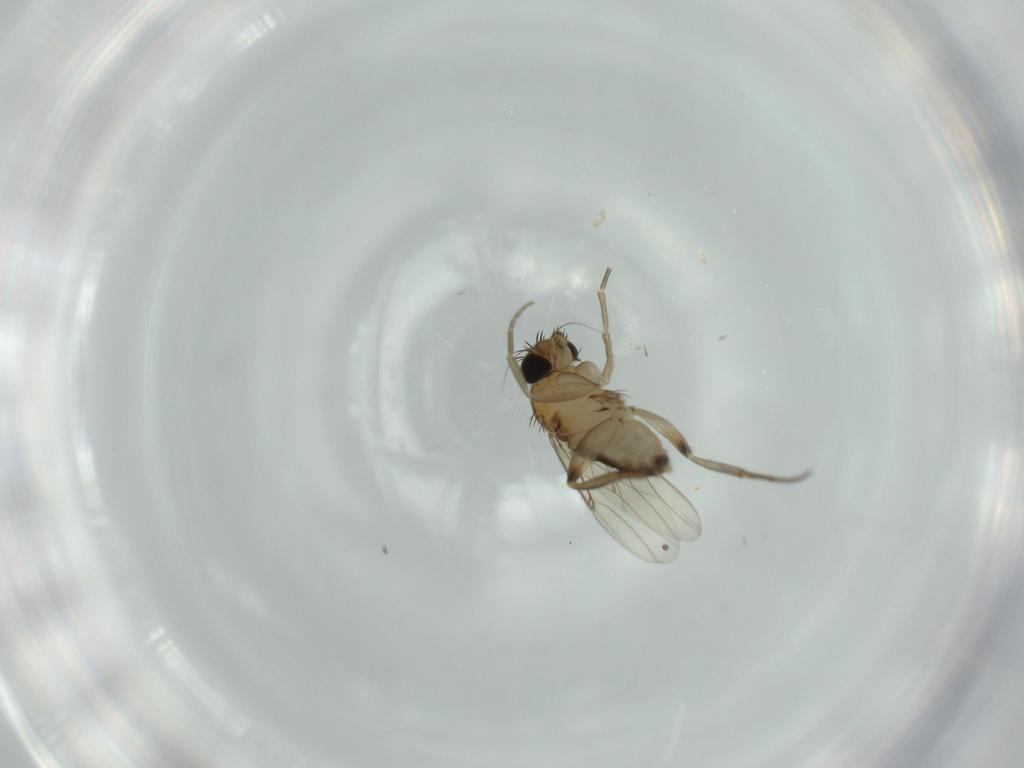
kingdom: Animalia
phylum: Arthropoda
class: Insecta
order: Diptera
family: Phoridae
